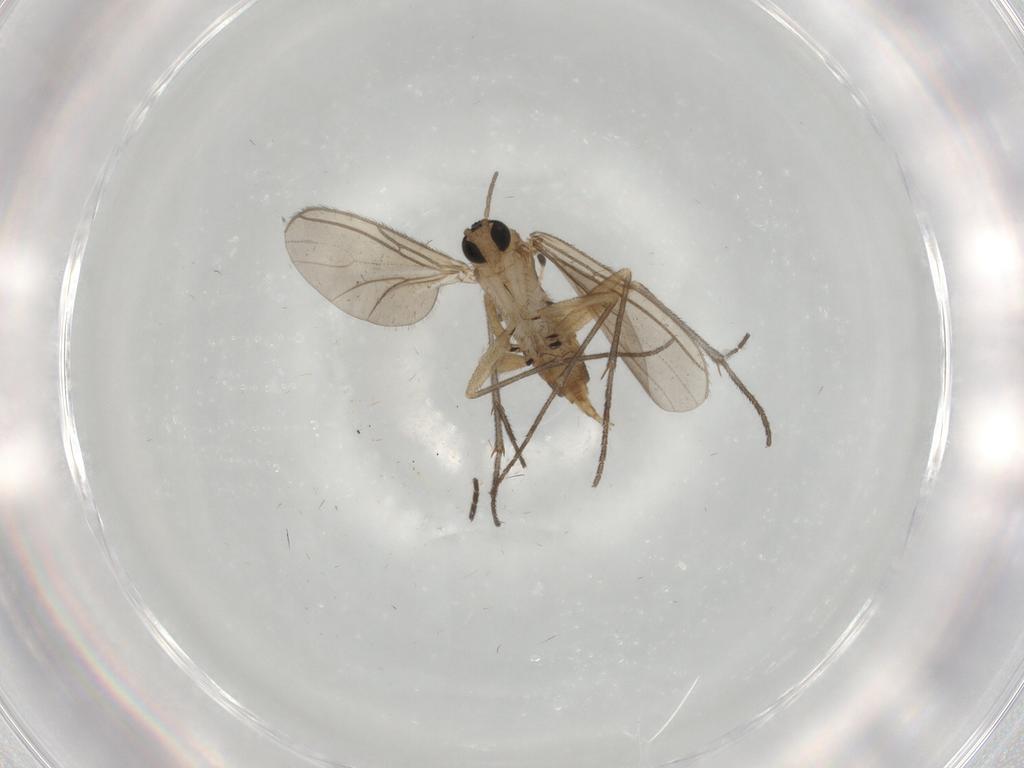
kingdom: Animalia
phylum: Arthropoda
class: Insecta
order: Diptera
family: Sciaridae
